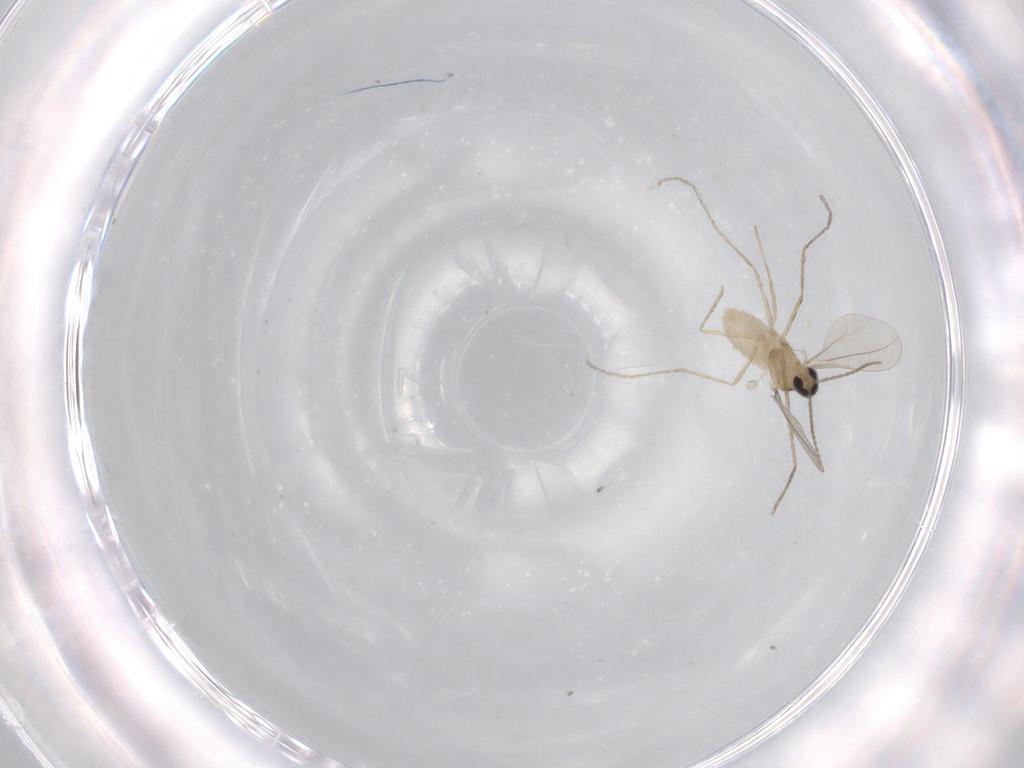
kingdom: Animalia
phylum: Arthropoda
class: Insecta
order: Diptera
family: Cecidomyiidae
